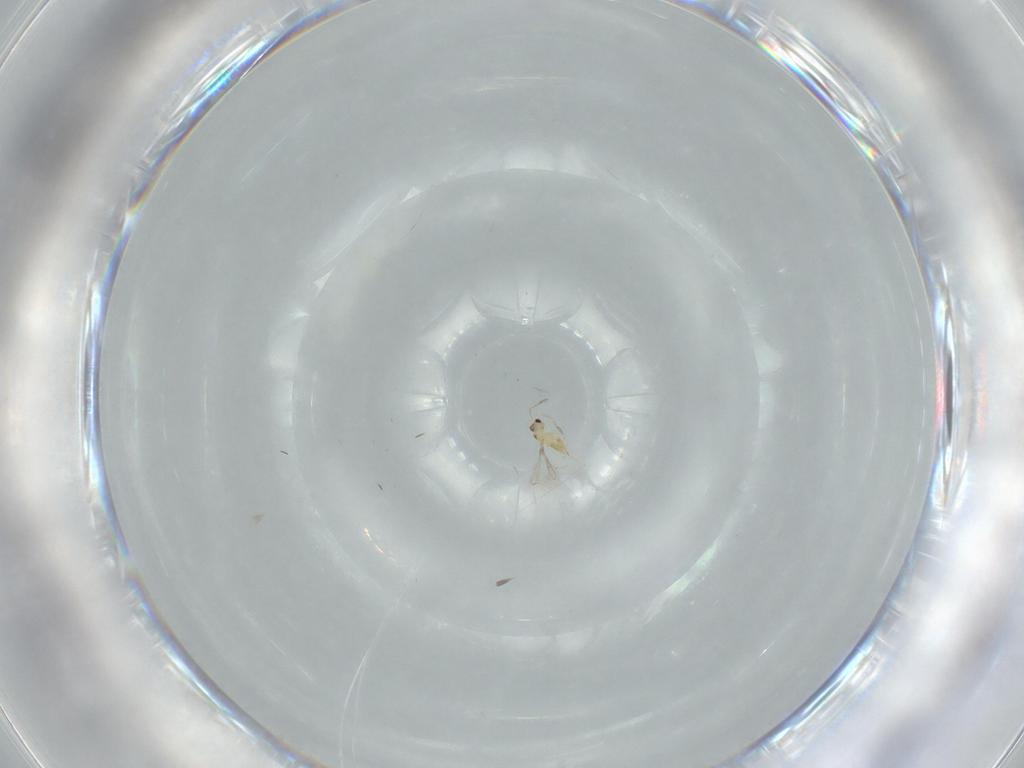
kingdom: Animalia
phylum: Arthropoda
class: Insecta
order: Hymenoptera
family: Mymaridae
